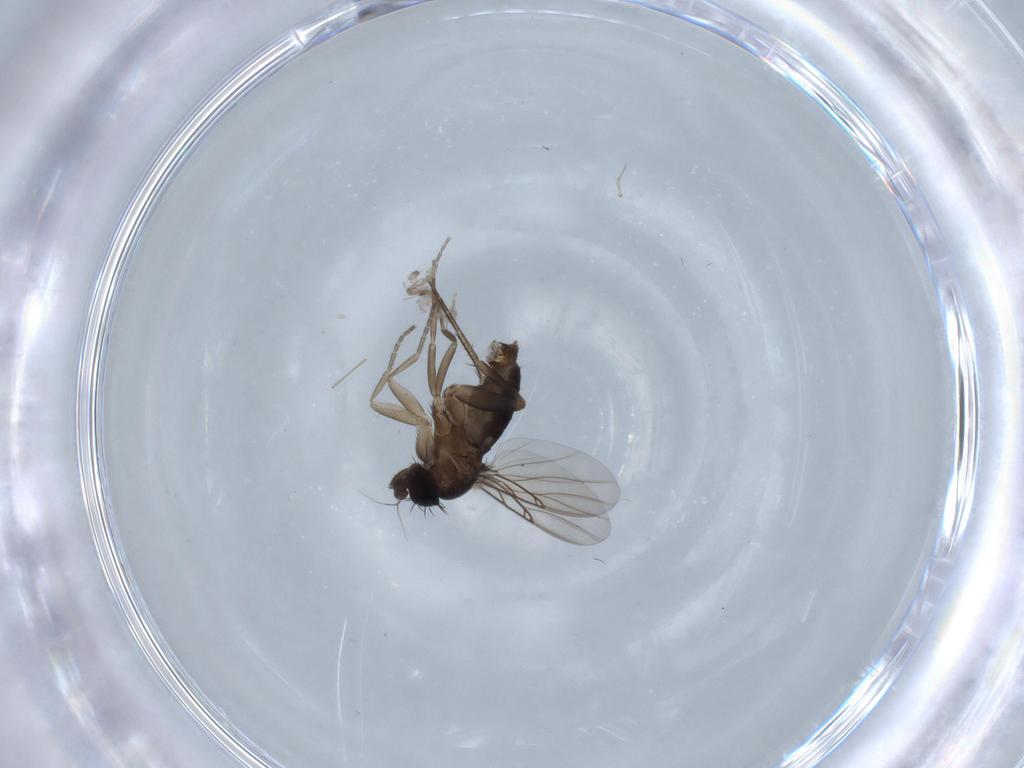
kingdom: Animalia
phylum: Arthropoda
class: Insecta
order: Diptera
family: Phoridae
